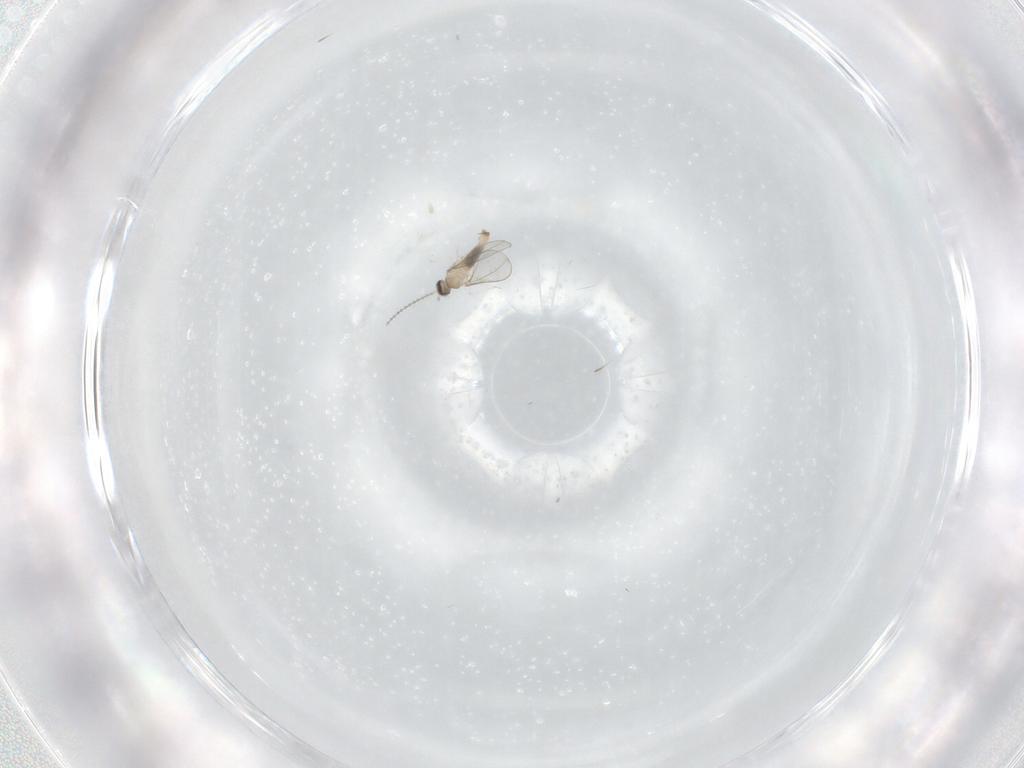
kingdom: Animalia
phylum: Arthropoda
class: Insecta
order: Diptera
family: Cecidomyiidae
